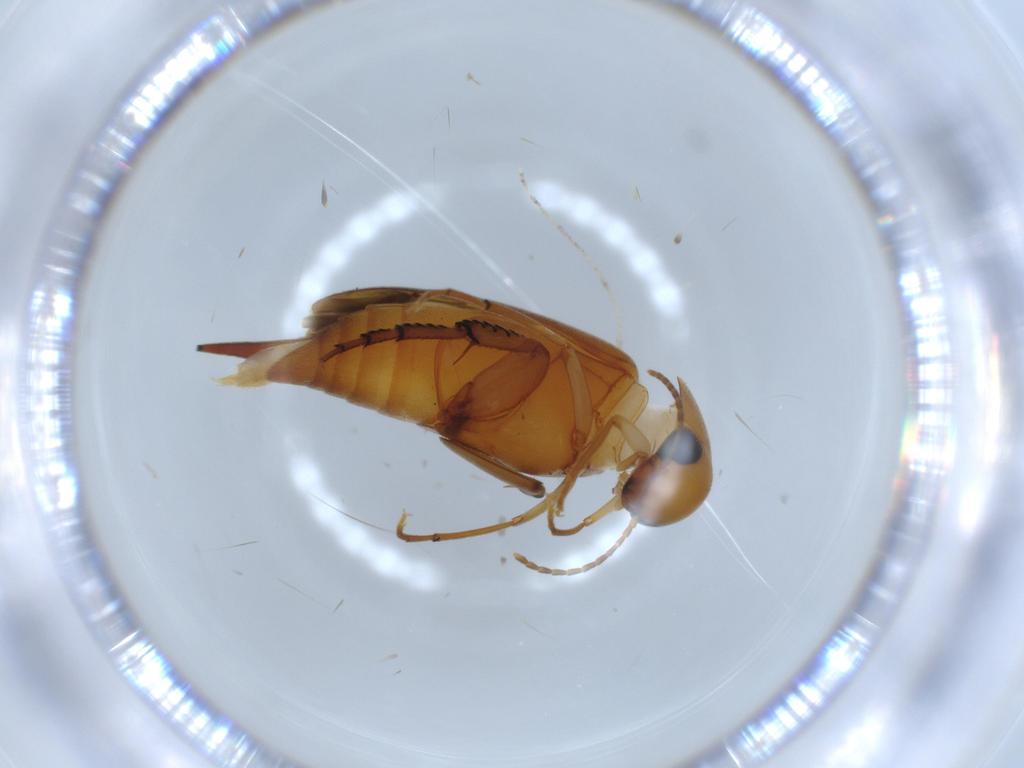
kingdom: Animalia
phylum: Arthropoda
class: Insecta
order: Coleoptera
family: Mordellidae
